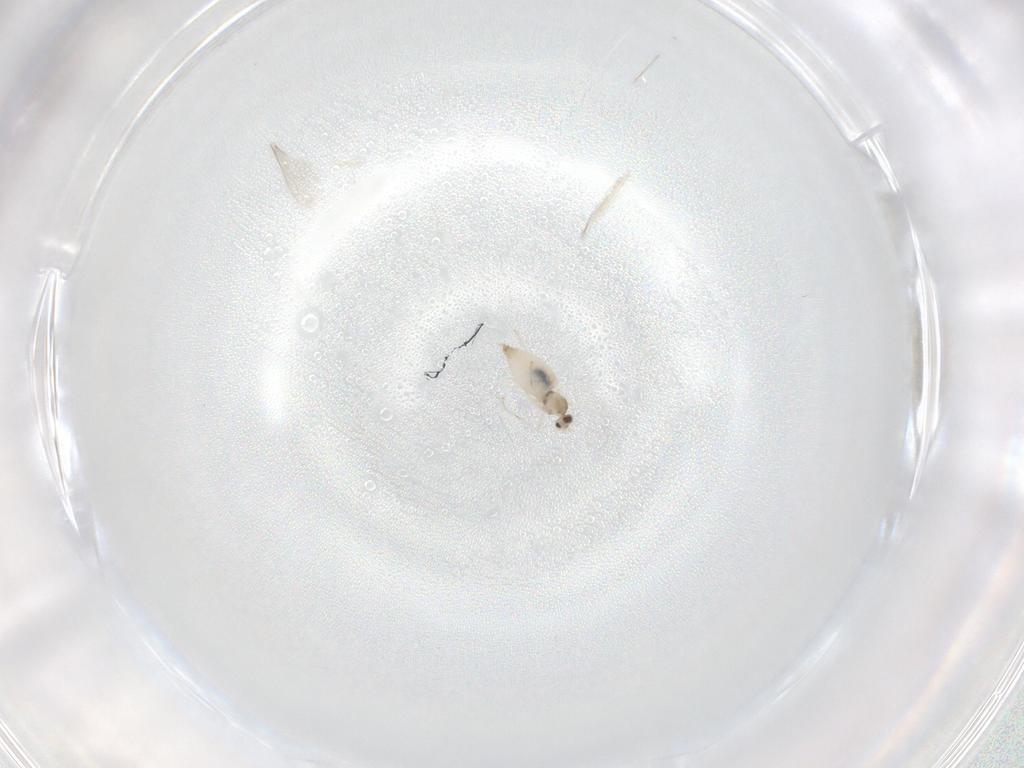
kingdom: Animalia
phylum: Arthropoda
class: Insecta
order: Diptera
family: Cecidomyiidae
